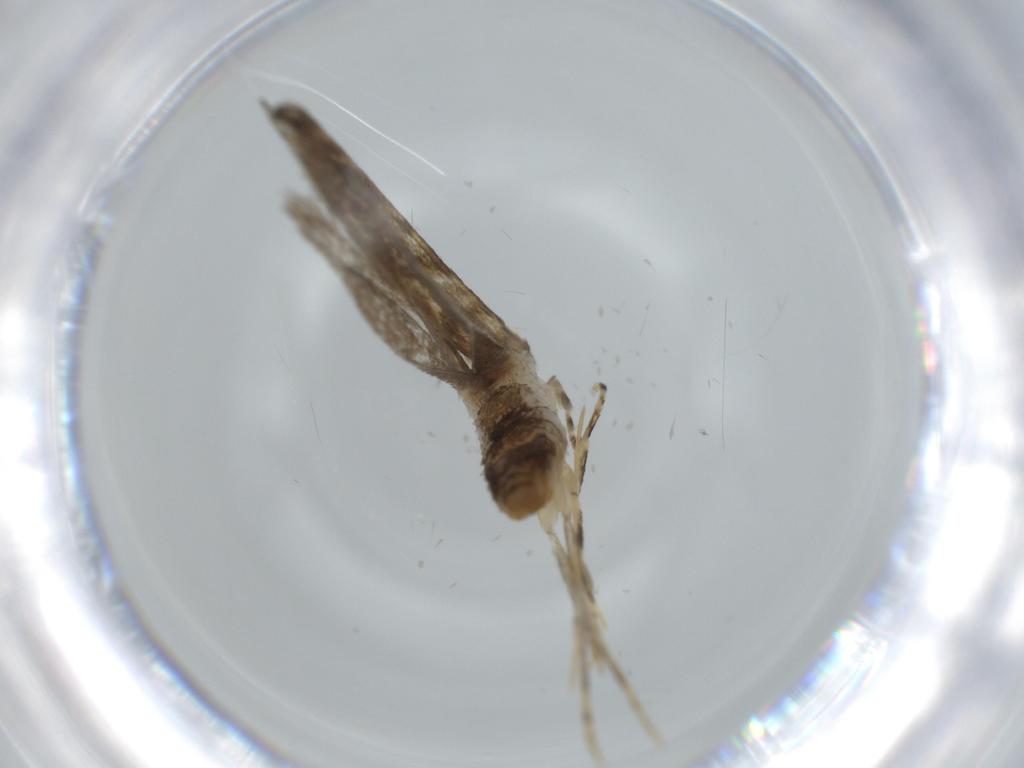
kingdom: Animalia
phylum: Arthropoda
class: Insecta
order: Lepidoptera
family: Tineidae
